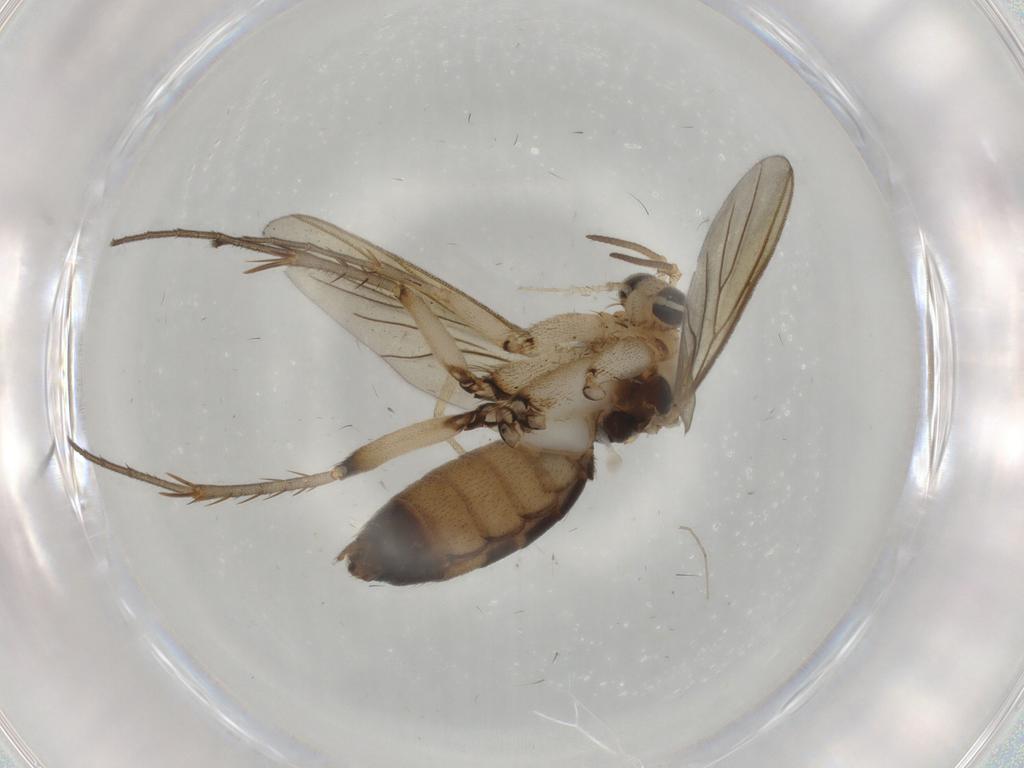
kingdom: Animalia
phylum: Arthropoda
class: Insecta
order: Diptera
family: Mycetophilidae
